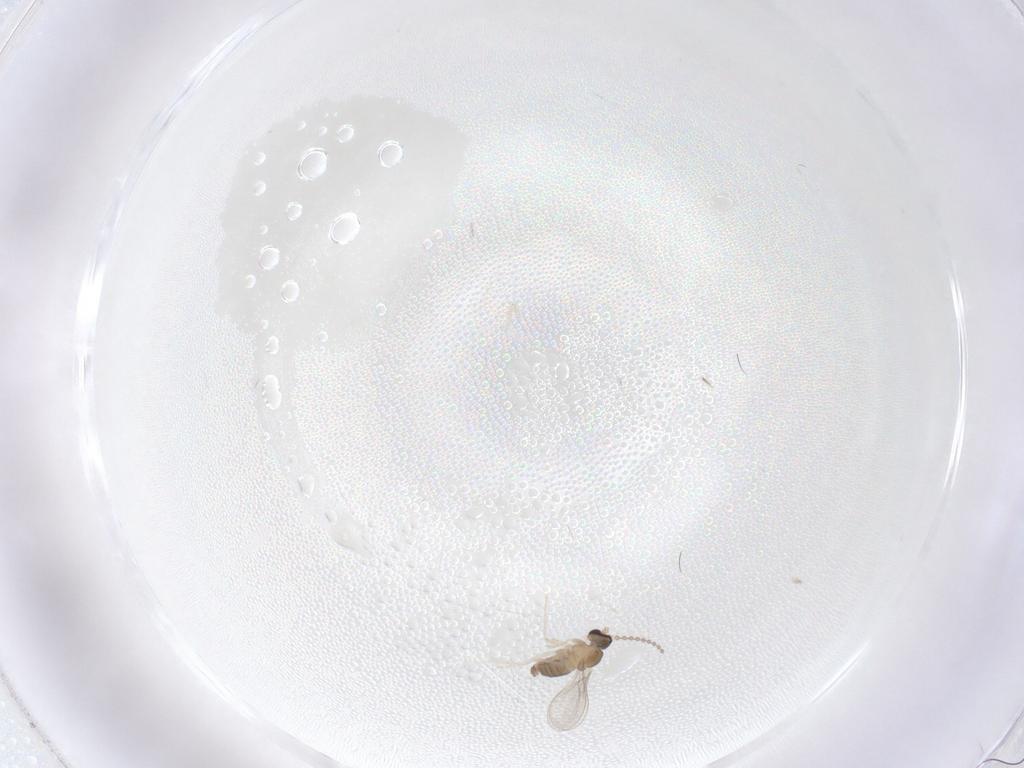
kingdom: Animalia
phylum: Arthropoda
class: Insecta
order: Diptera
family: Cecidomyiidae
